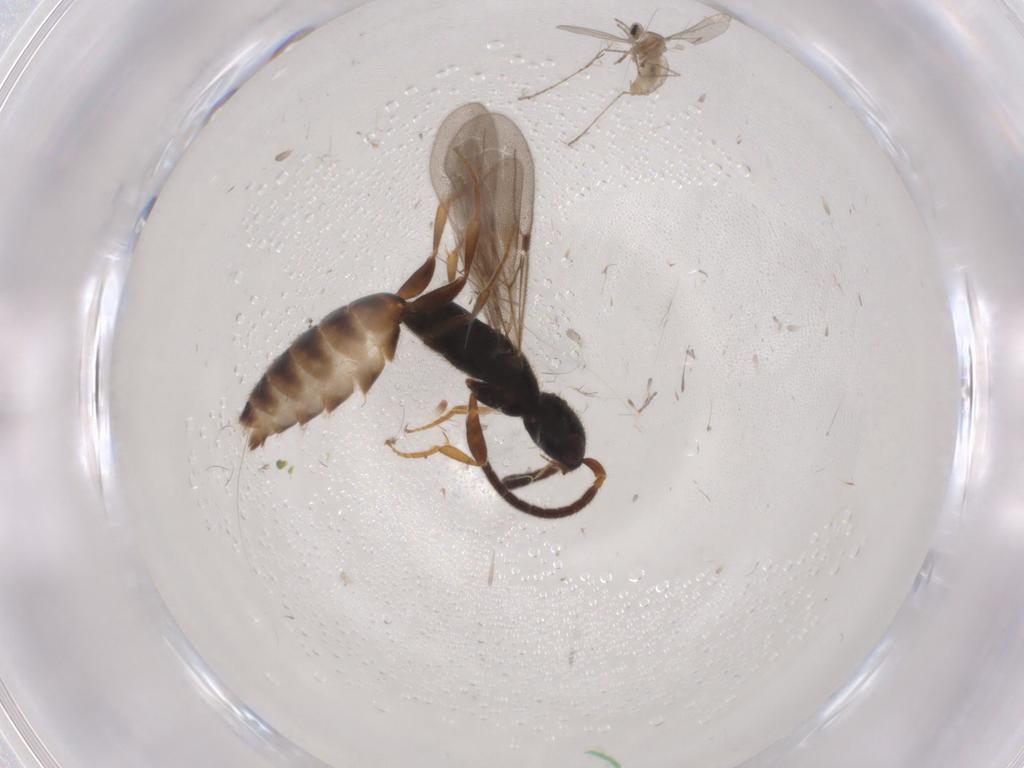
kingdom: Animalia
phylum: Arthropoda
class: Insecta
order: Hymenoptera
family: Bethylidae
